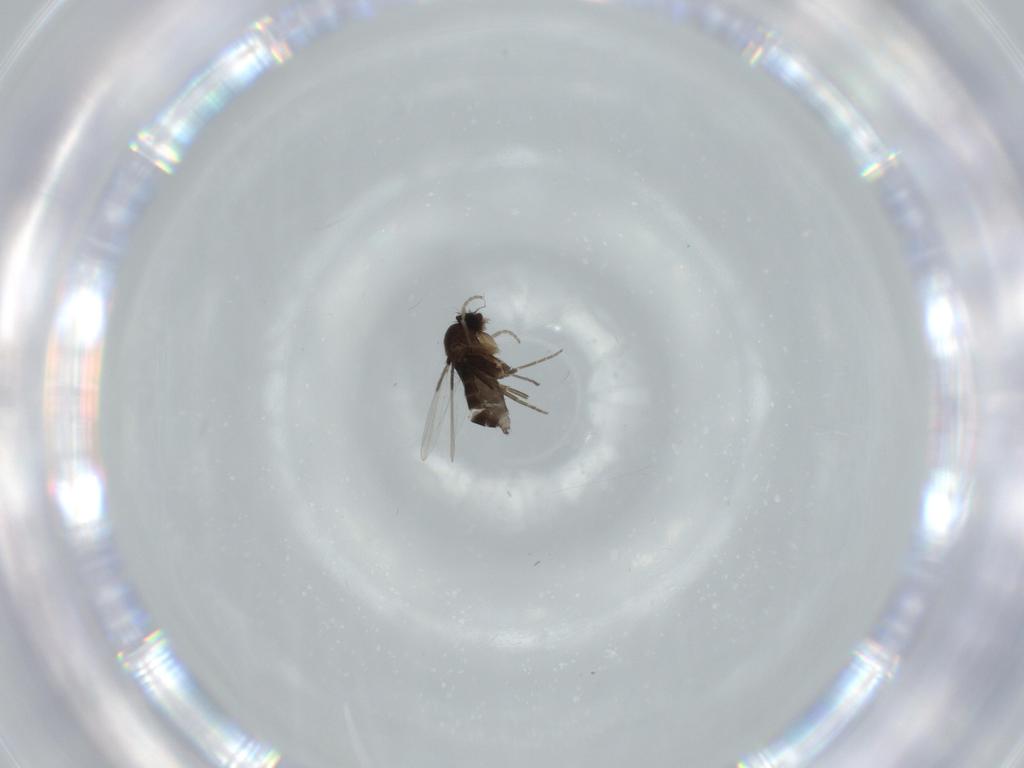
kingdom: Animalia
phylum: Arthropoda
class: Insecta
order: Diptera
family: Phoridae
